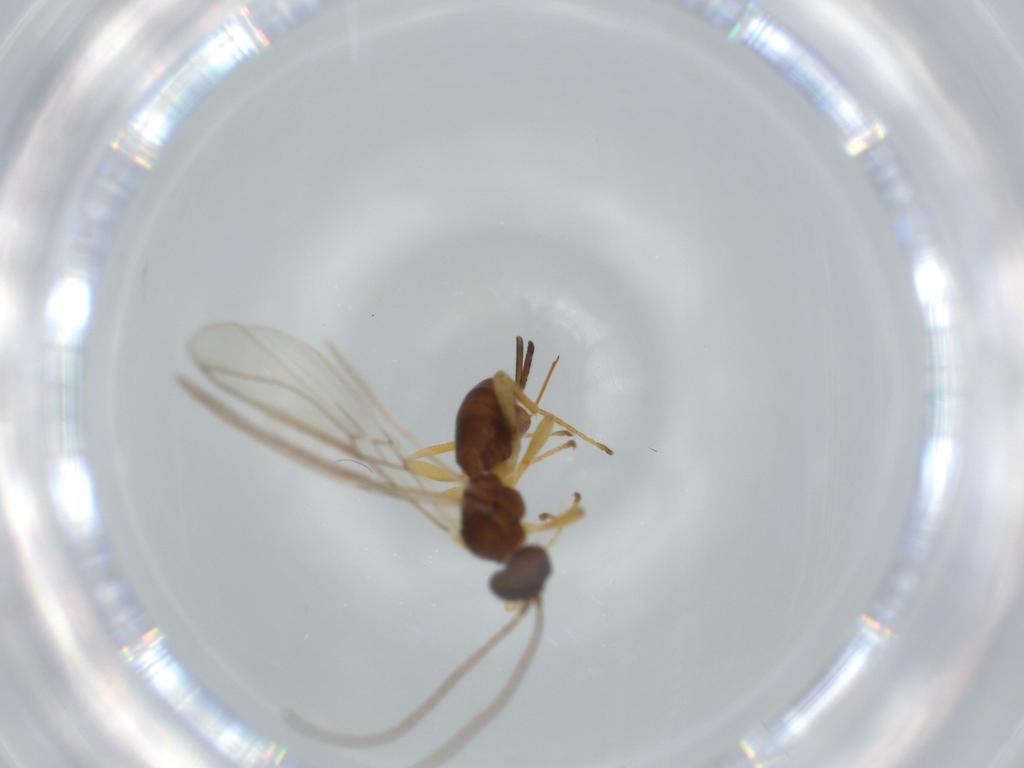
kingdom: Animalia
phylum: Arthropoda
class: Insecta
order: Hymenoptera
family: Braconidae
